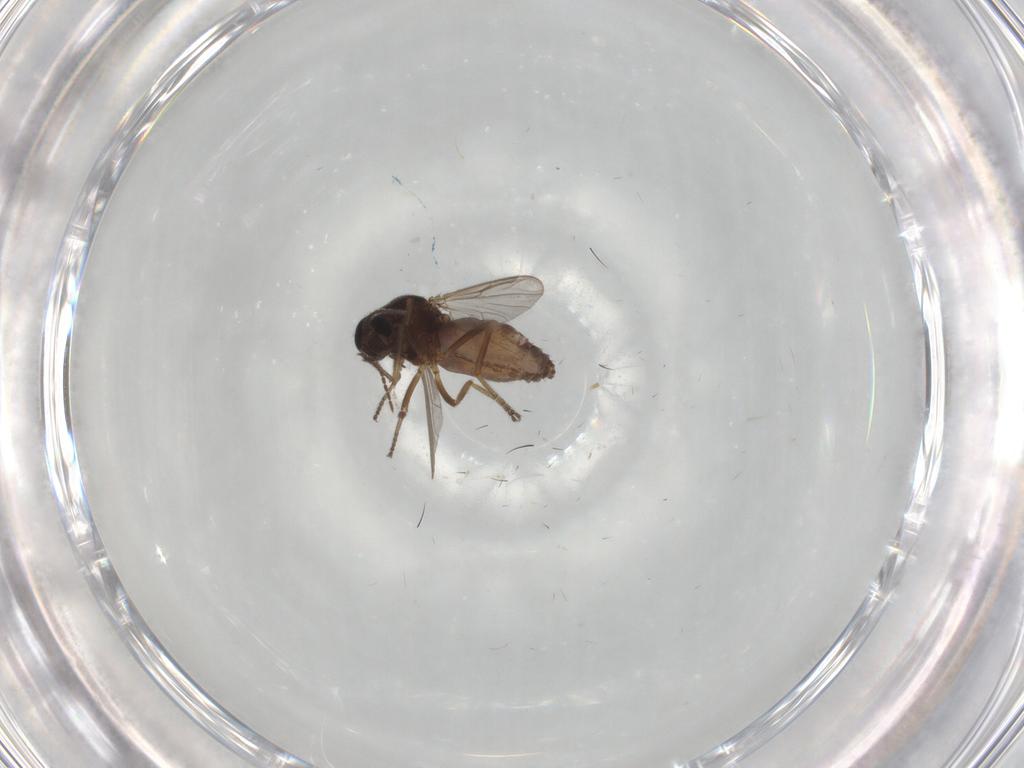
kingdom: Animalia
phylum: Arthropoda
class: Insecta
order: Diptera
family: Ceratopogonidae
